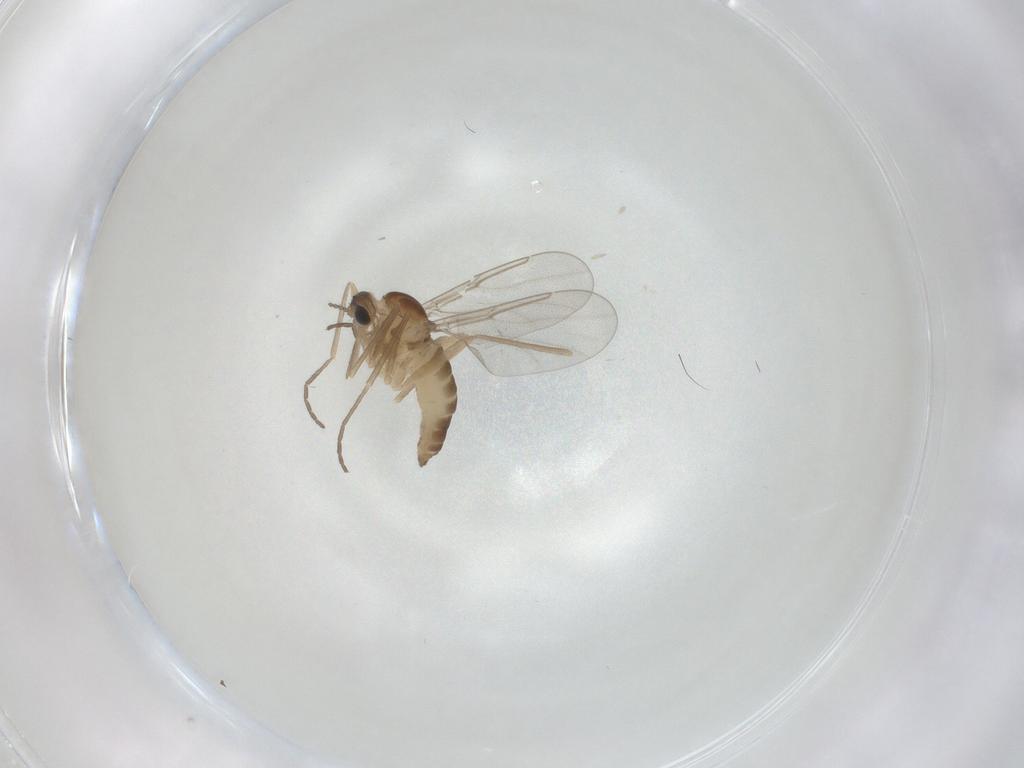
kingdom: Animalia
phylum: Arthropoda
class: Insecta
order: Diptera
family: Cecidomyiidae
